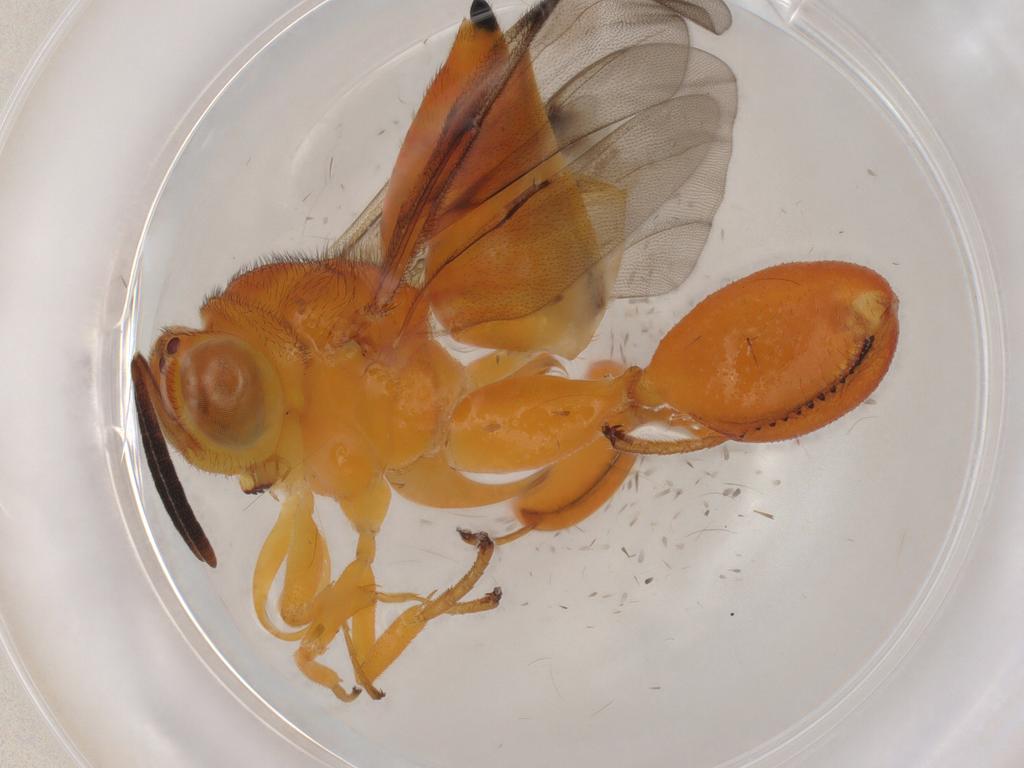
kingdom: Animalia
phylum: Arthropoda
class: Insecta
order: Hymenoptera
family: Chalcididae
